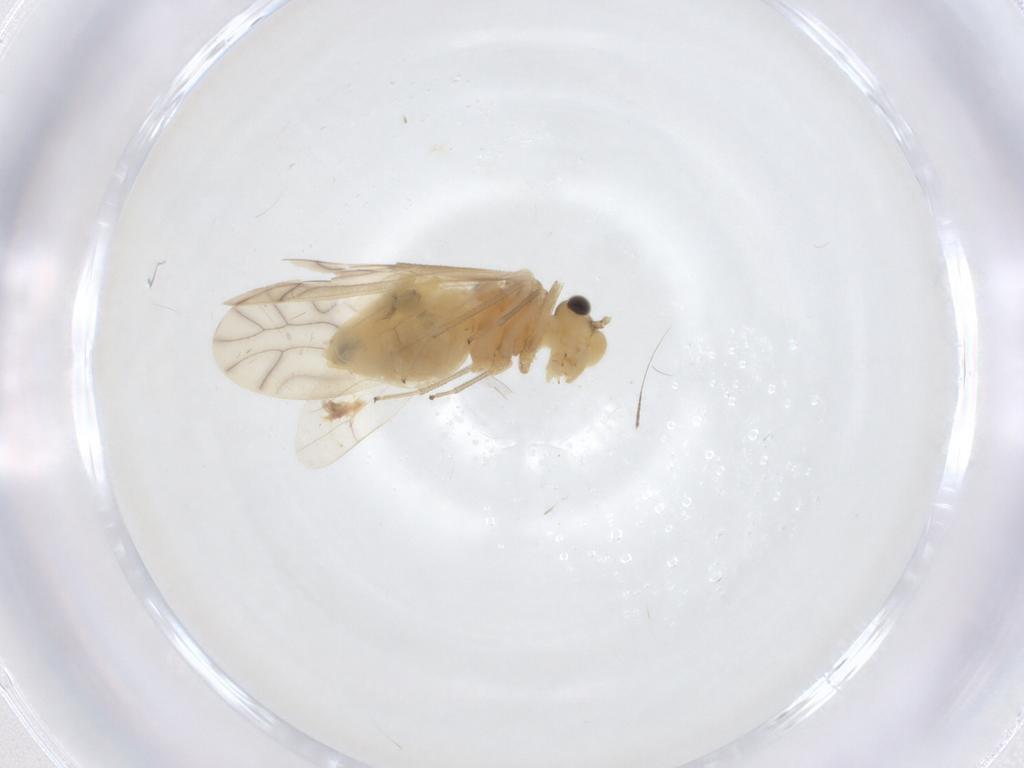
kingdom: Animalia
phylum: Arthropoda
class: Insecta
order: Psocodea
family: Caeciliusidae
